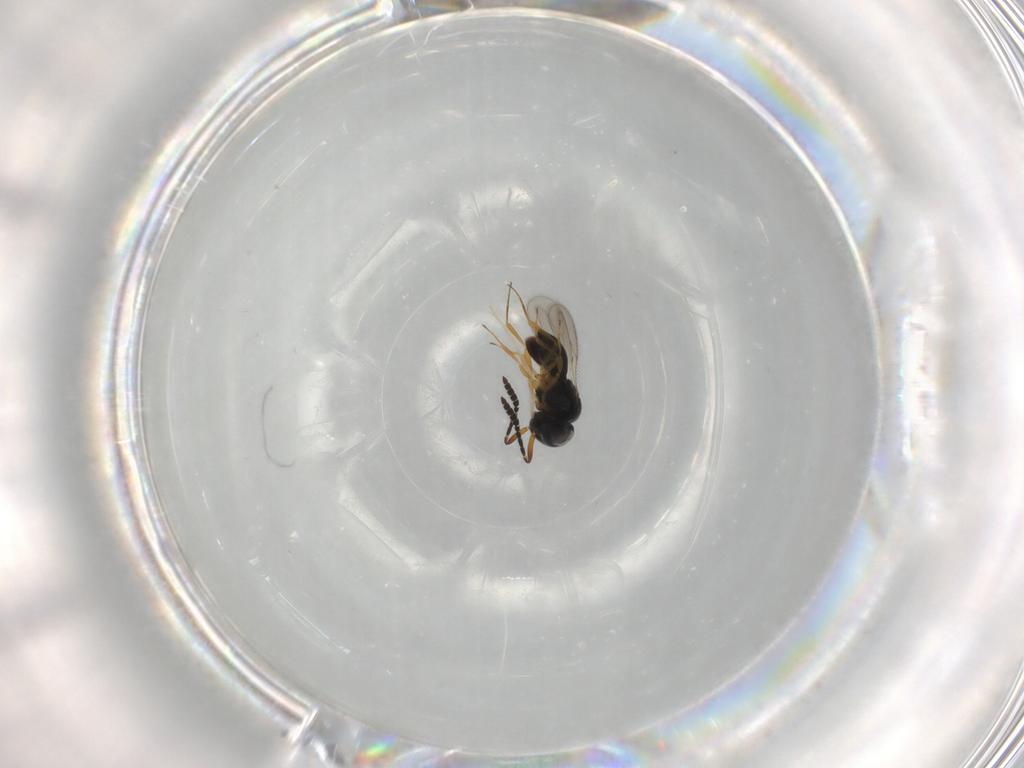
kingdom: Animalia
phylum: Arthropoda
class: Insecta
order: Hymenoptera
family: Scelionidae
